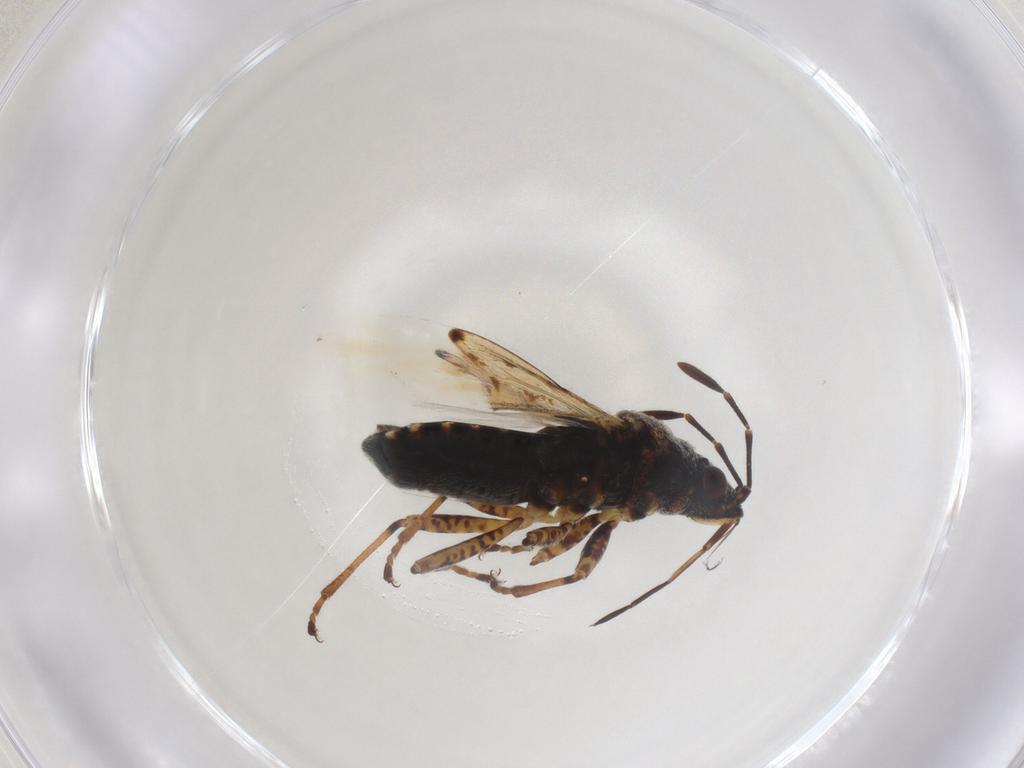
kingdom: Animalia
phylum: Arthropoda
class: Insecta
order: Hemiptera
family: Lygaeidae
